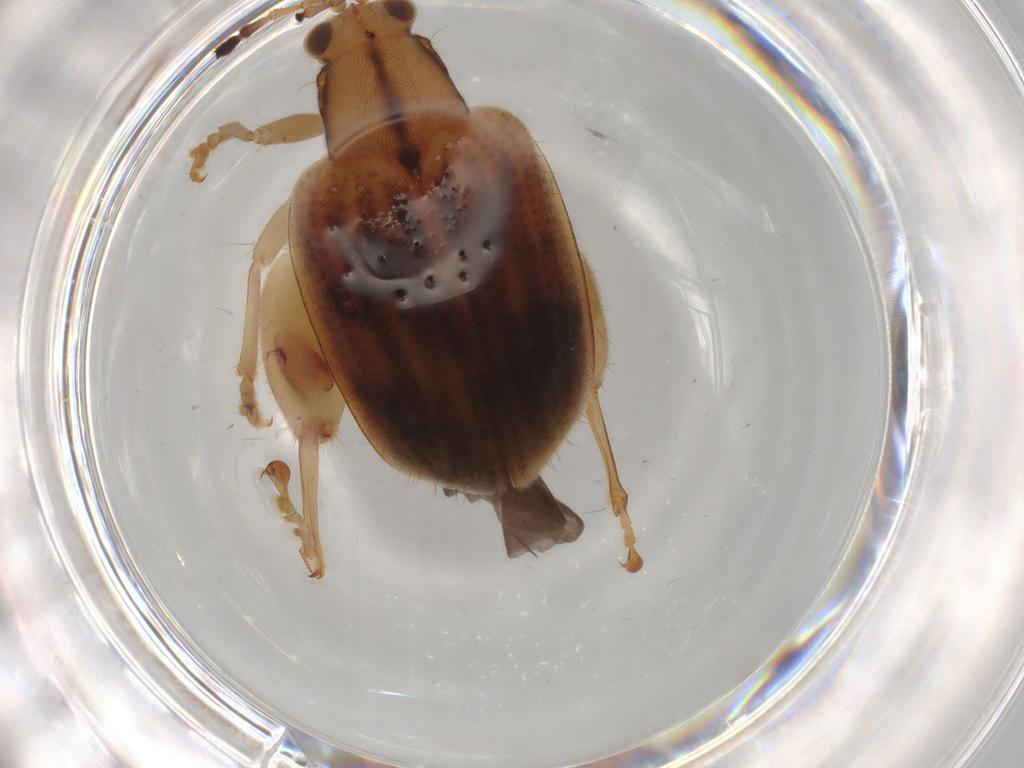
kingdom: Animalia
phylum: Arthropoda
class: Insecta
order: Coleoptera
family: Chrysomelidae
